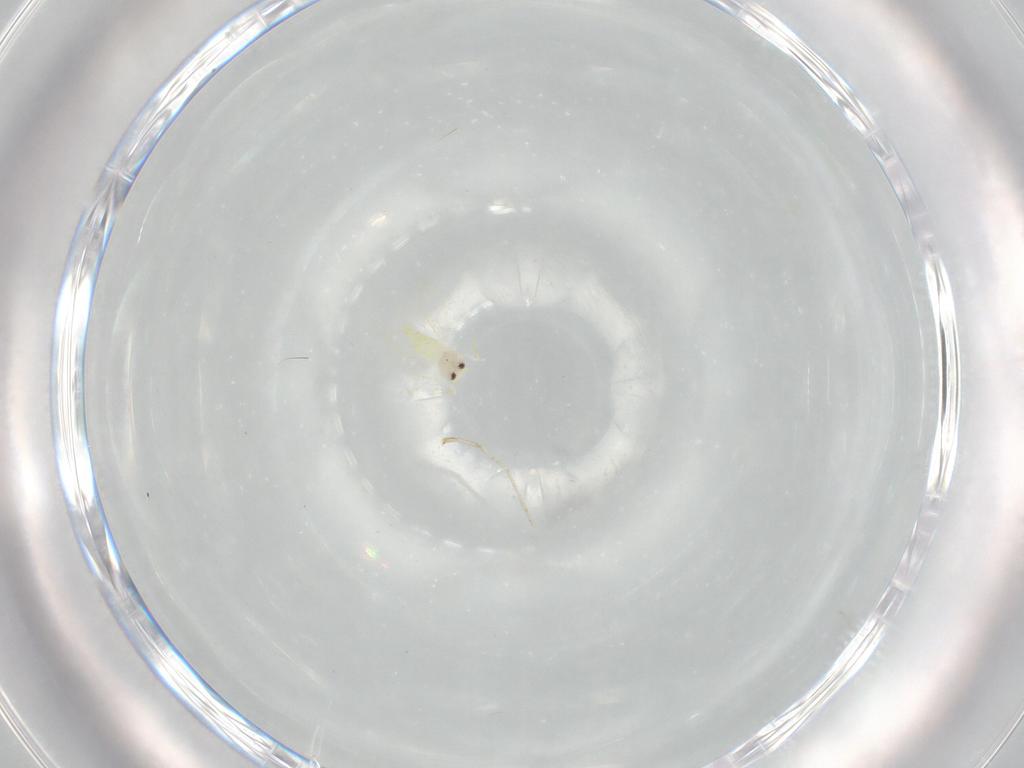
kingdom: Animalia
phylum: Arthropoda
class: Insecta
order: Hemiptera
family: Aleyrodidae
